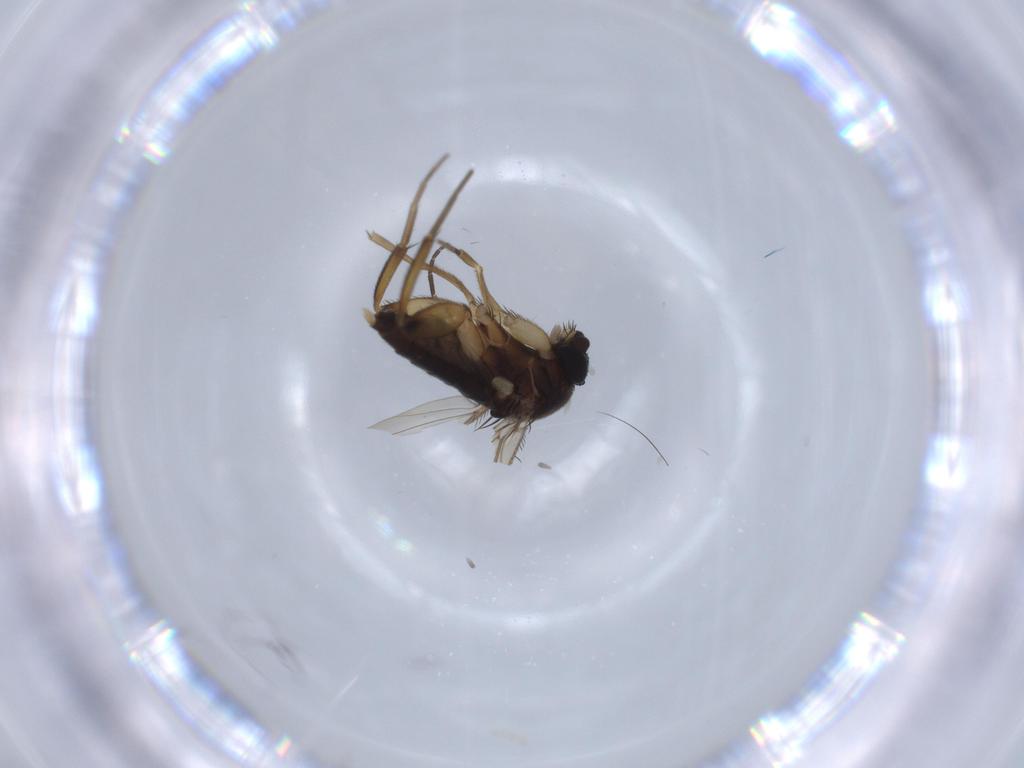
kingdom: Animalia
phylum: Arthropoda
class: Insecta
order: Diptera
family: Phoridae
